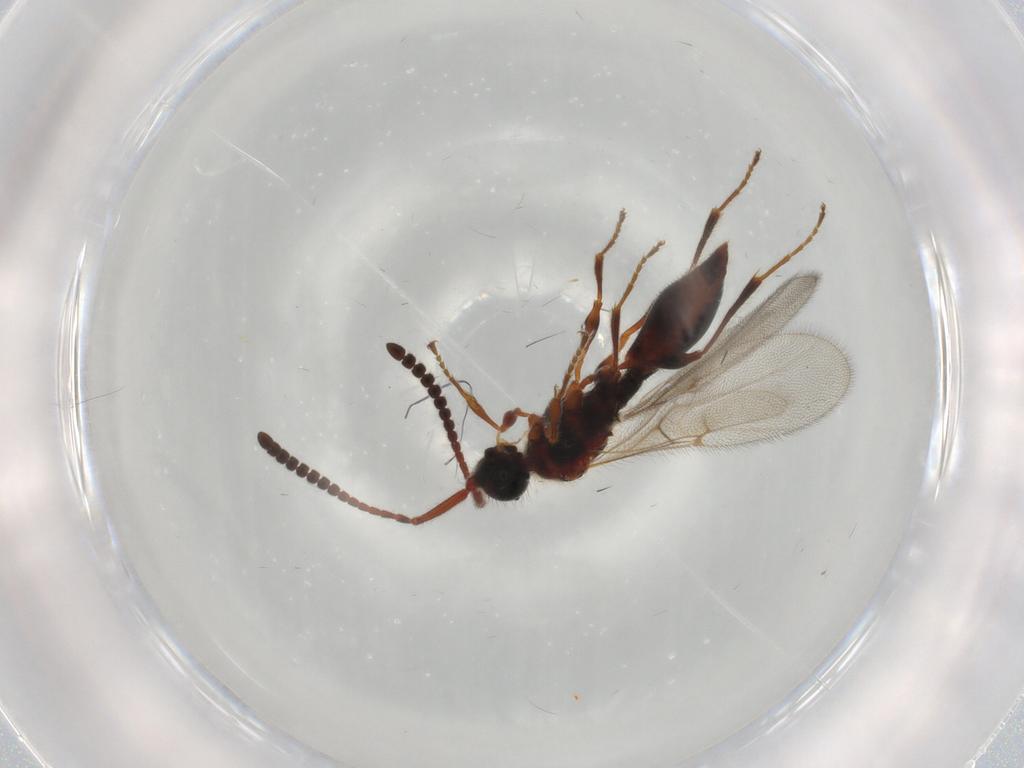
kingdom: Animalia
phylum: Arthropoda
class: Insecta
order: Hymenoptera
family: Diapriidae
